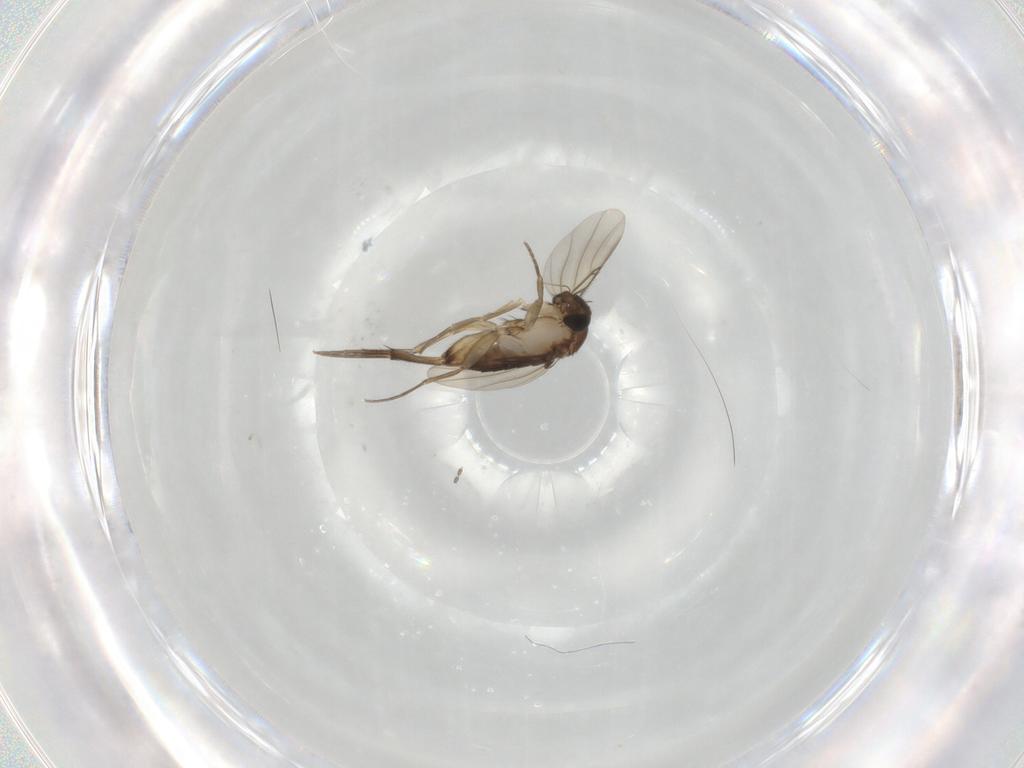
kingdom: Animalia
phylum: Arthropoda
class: Insecta
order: Diptera
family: Phoridae
